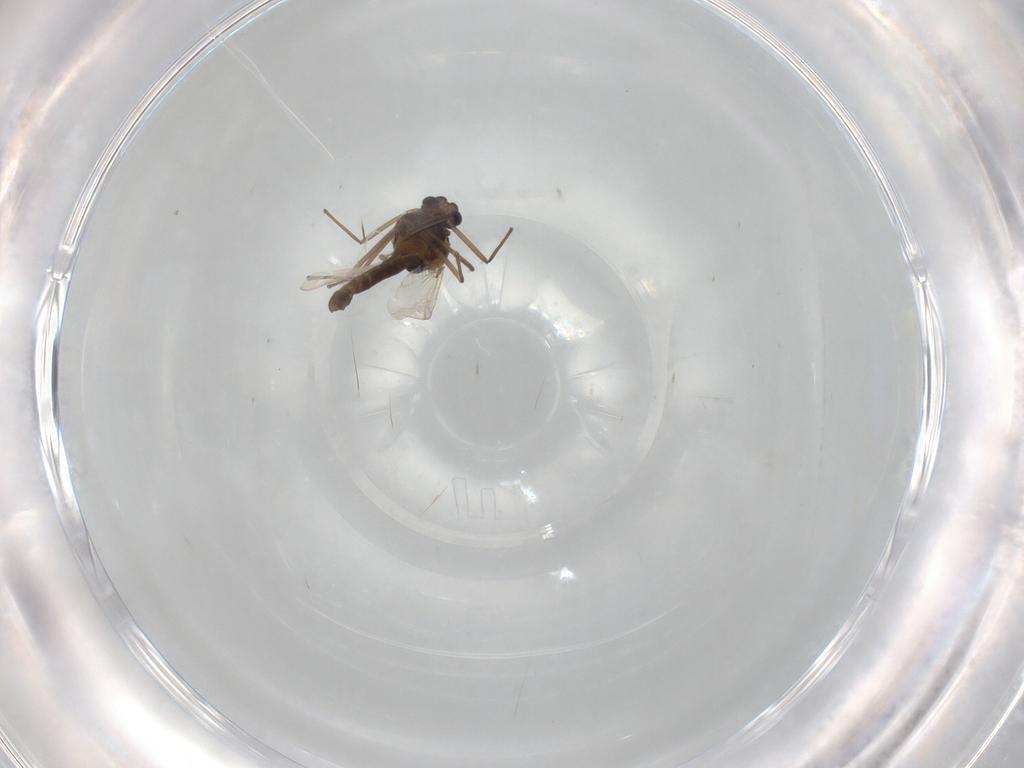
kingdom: Animalia
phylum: Arthropoda
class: Insecta
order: Diptera
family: Chironomidae
